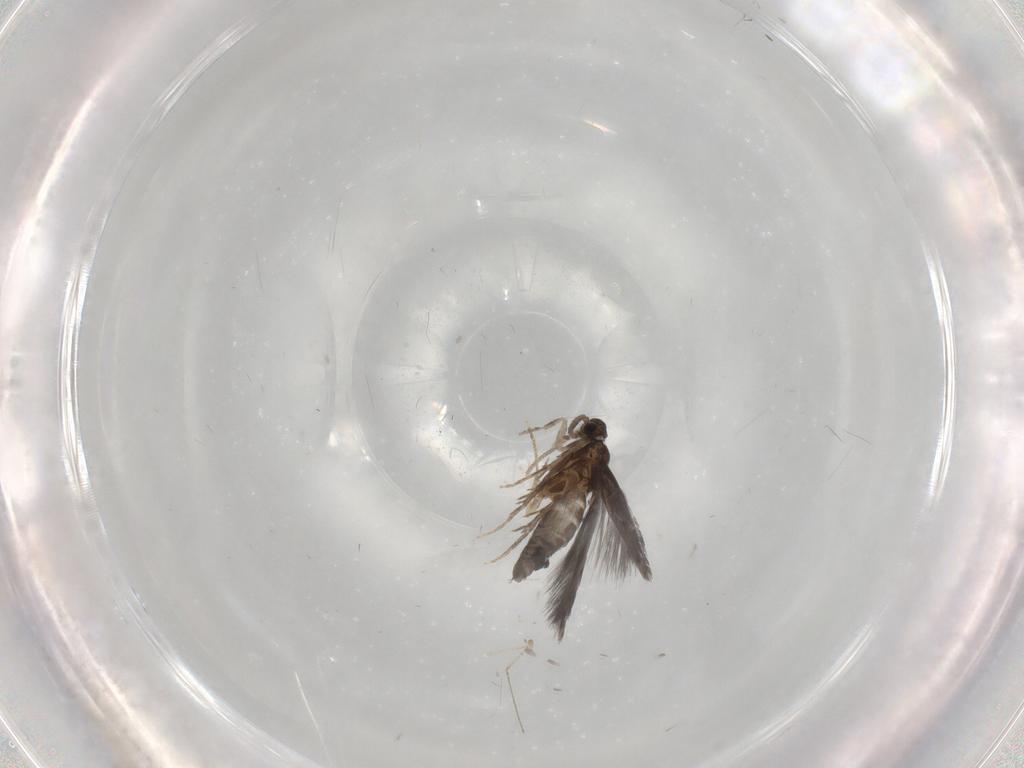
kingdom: Animalia
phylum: Arthropoda
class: Insecta
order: Trichoptera
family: Hydroptilidae
